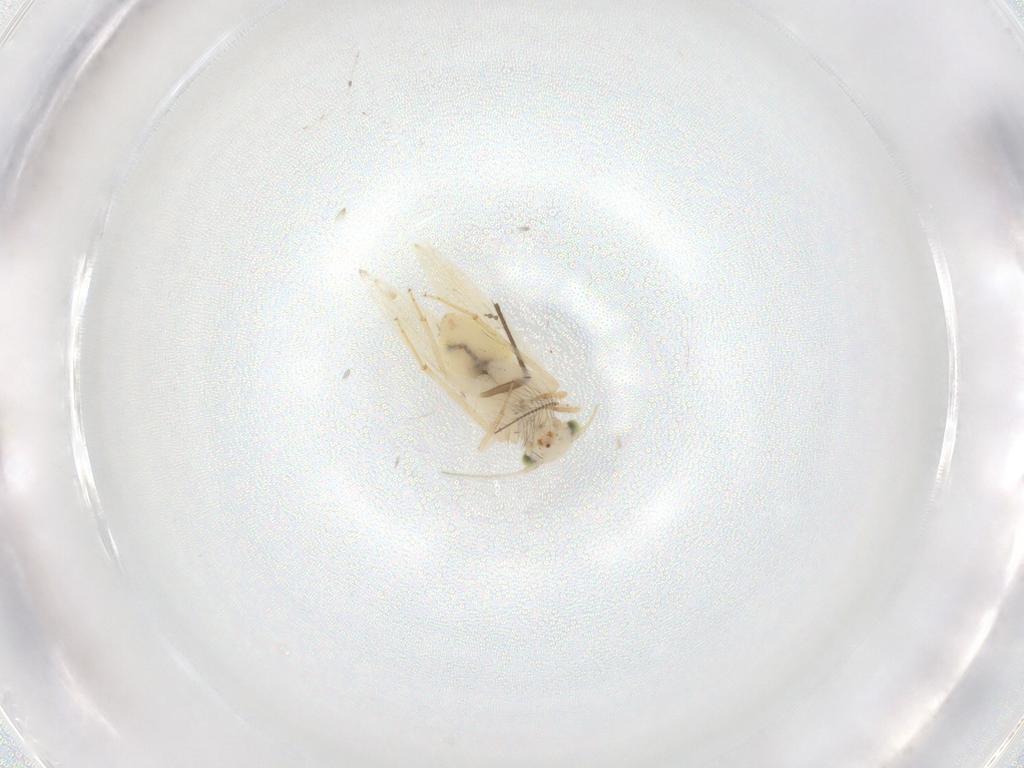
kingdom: Animalia
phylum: Arthropoda
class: Insecta
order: Psocodea
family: Lepidopsocidae
